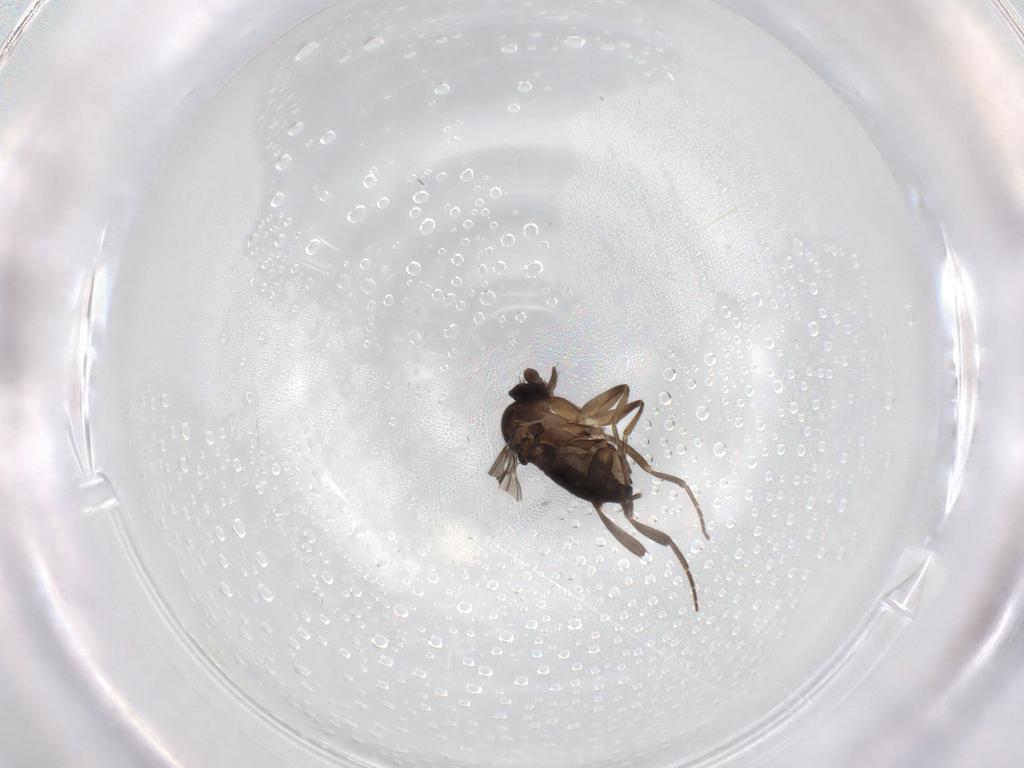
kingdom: Animalia
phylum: Arthropoda
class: Insecta
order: Diptera
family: Phoridae
